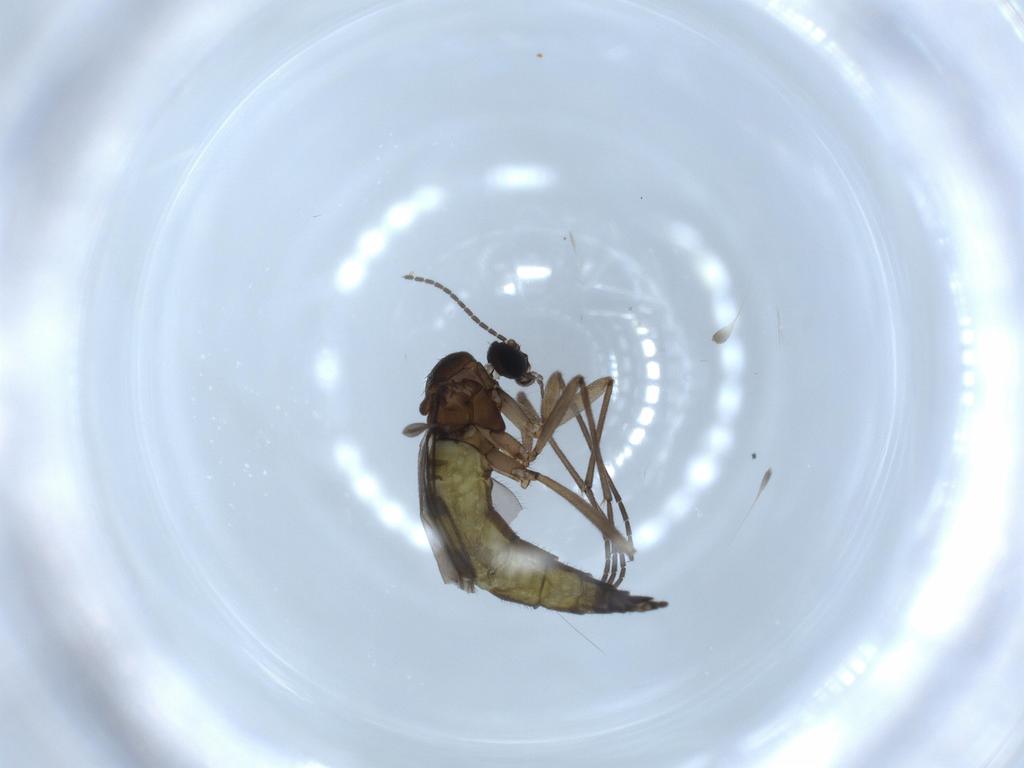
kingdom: Animalia
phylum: Arthropoda
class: Insecta
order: Diptera
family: Sciaridae
